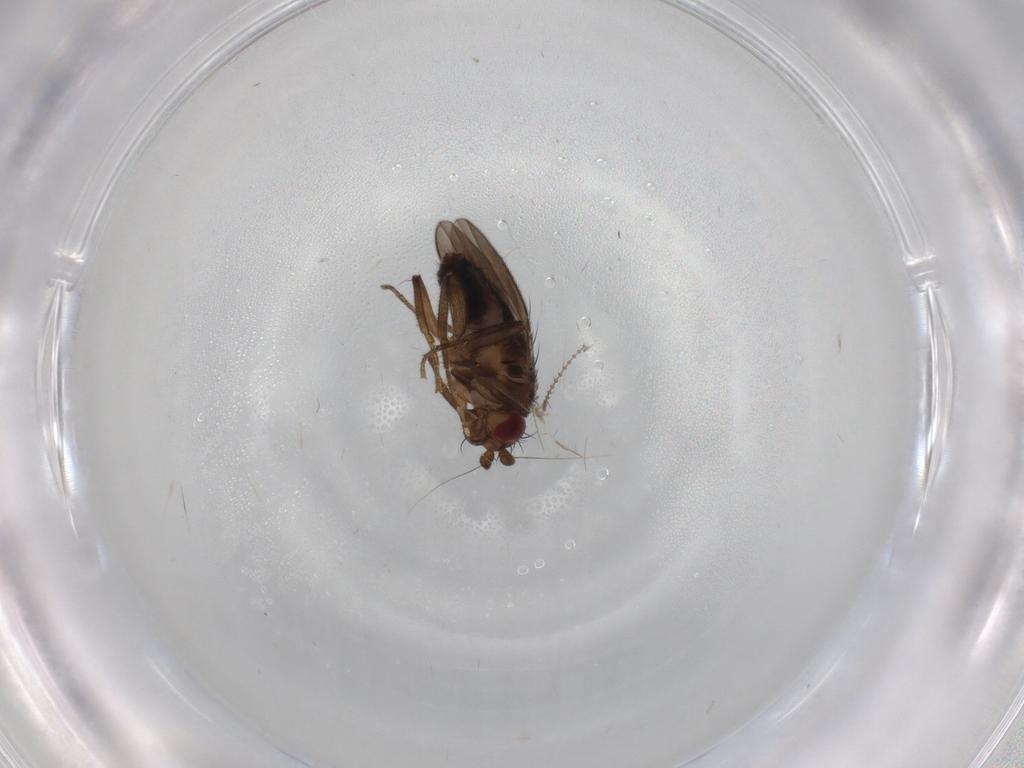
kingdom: Animalia
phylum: Arthropoda
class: Insecta
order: Diptera
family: Sphaeroceridae
